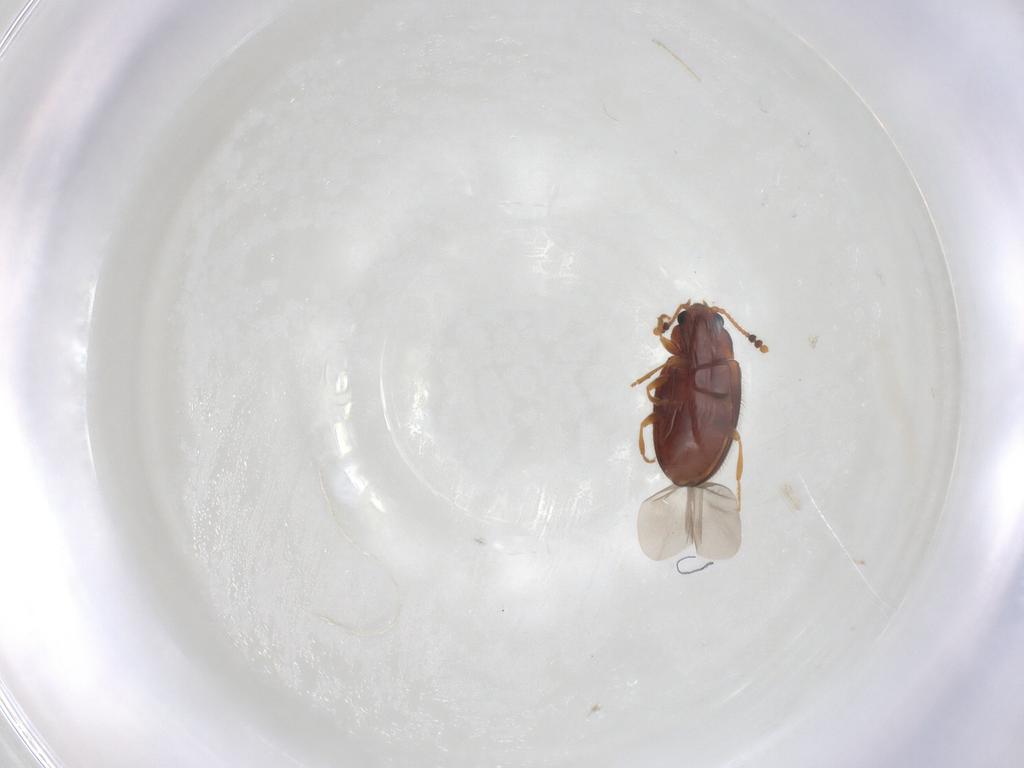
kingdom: Animalia
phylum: Arthropoda
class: Insecta
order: Coleoptera
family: Erotylidae
